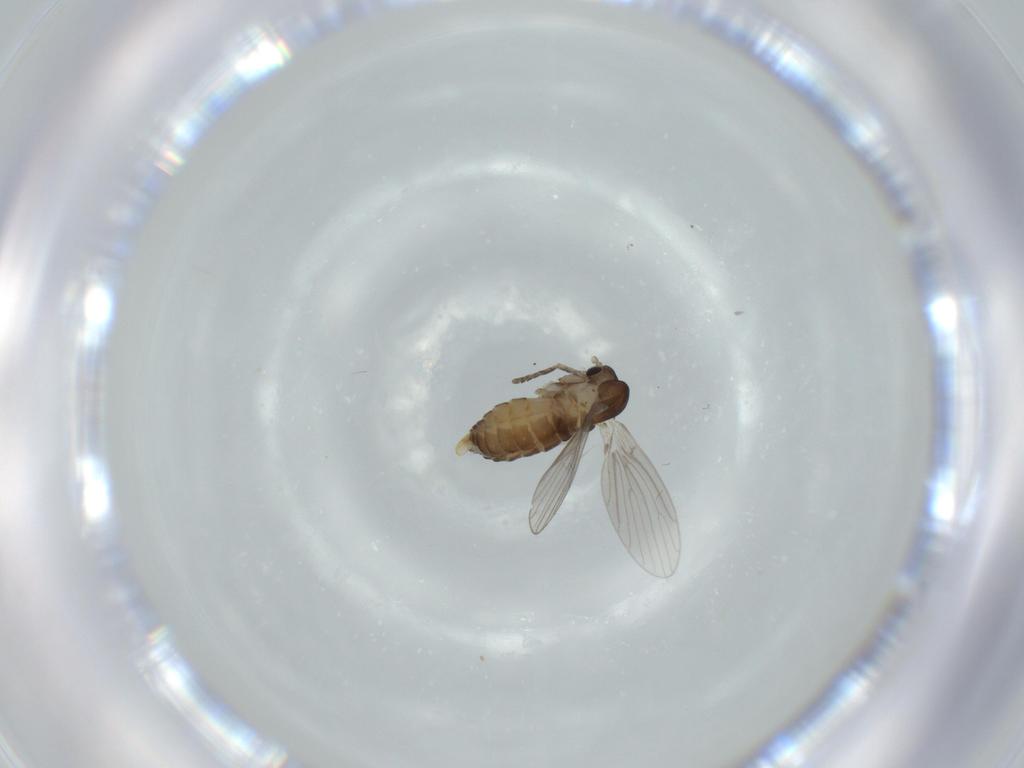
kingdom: Animalia
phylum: Arthropoda
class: Insecta
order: Diptera
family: Psychodidae
